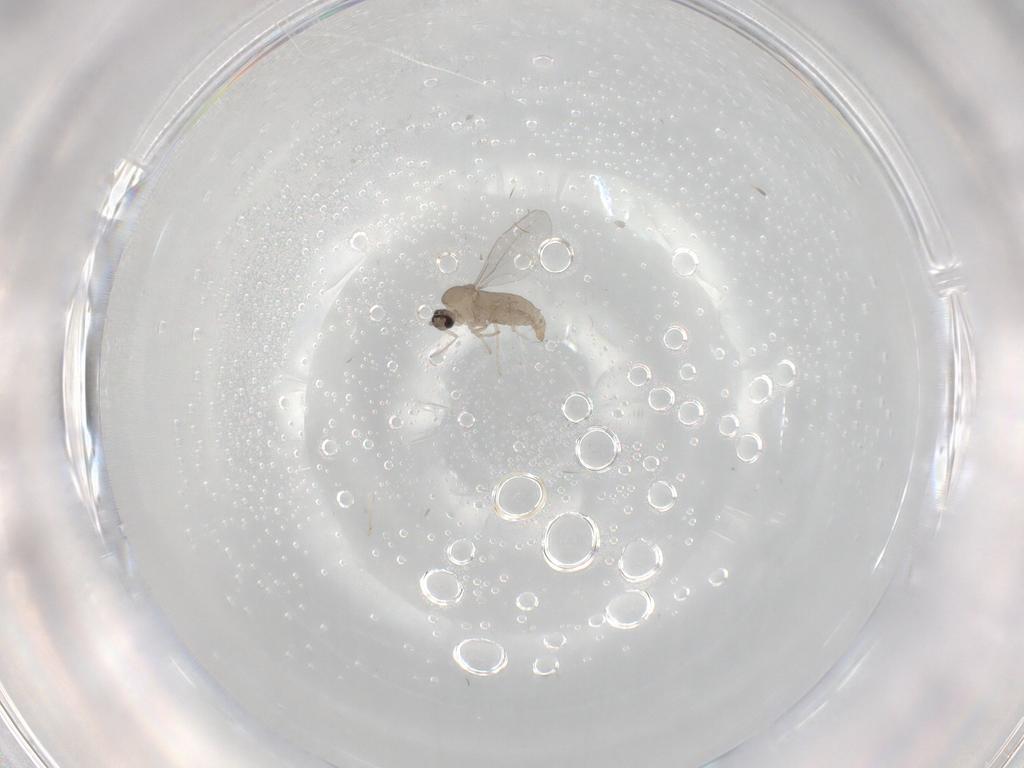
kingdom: Animalia
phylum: Arthropoda
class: Insecta
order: Diptera
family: Cecidomyiidae
